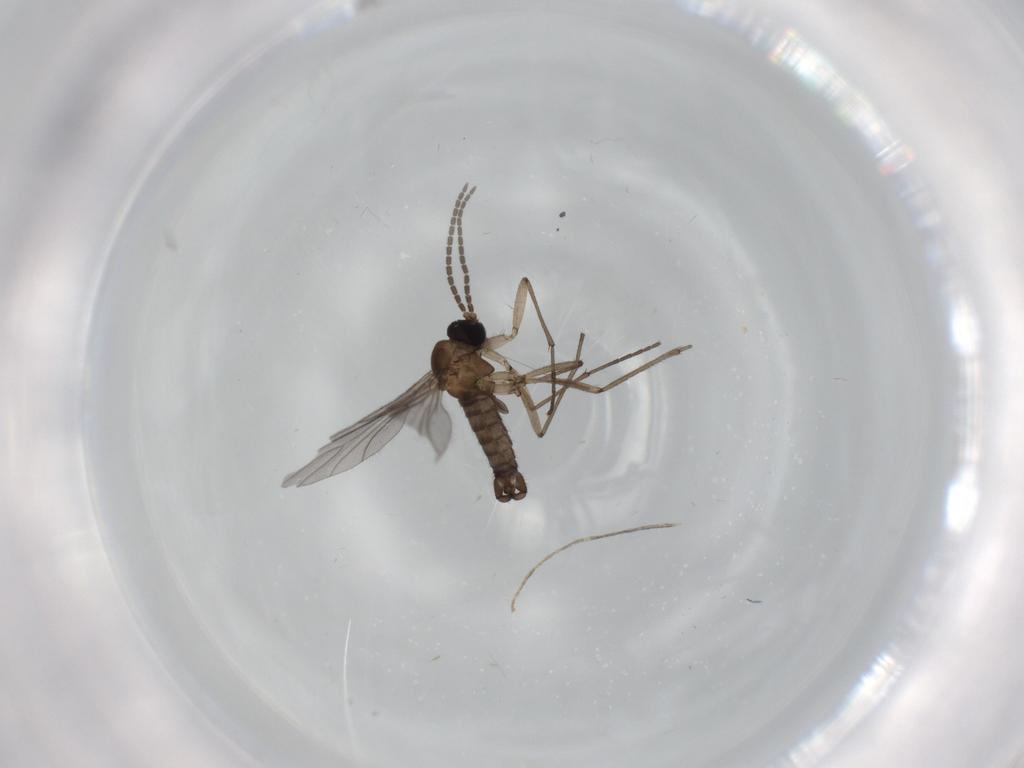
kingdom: Animalia
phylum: Arthropoda
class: Insecta
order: Diptera
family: Sciaridae
